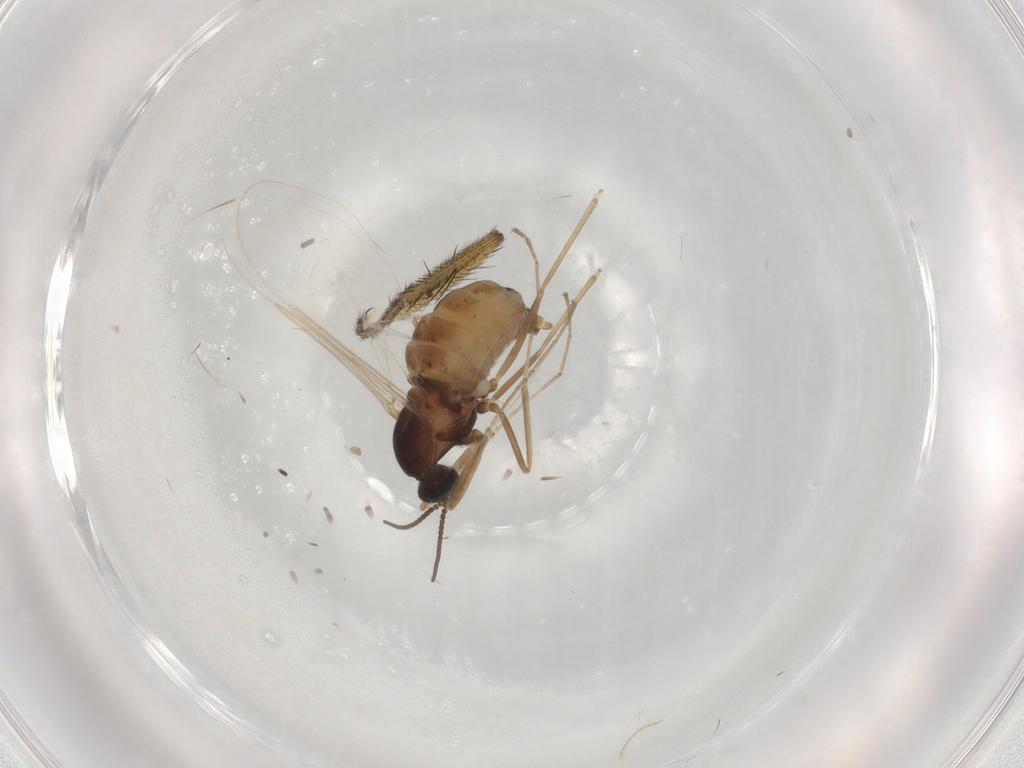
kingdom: Animalia
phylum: Arthropoda
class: Insecta
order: Diptera
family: Cecidomyiidae
